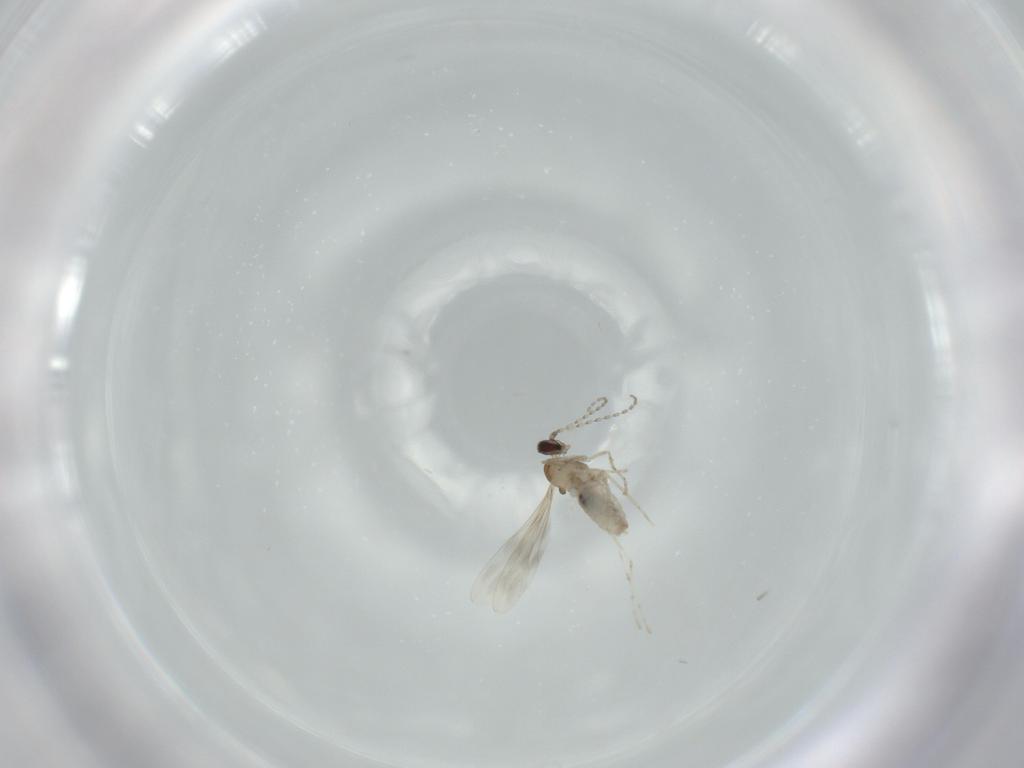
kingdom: Animalia
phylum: Arthropoda
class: Insecta
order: Diptera
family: Cecidomyiidae
